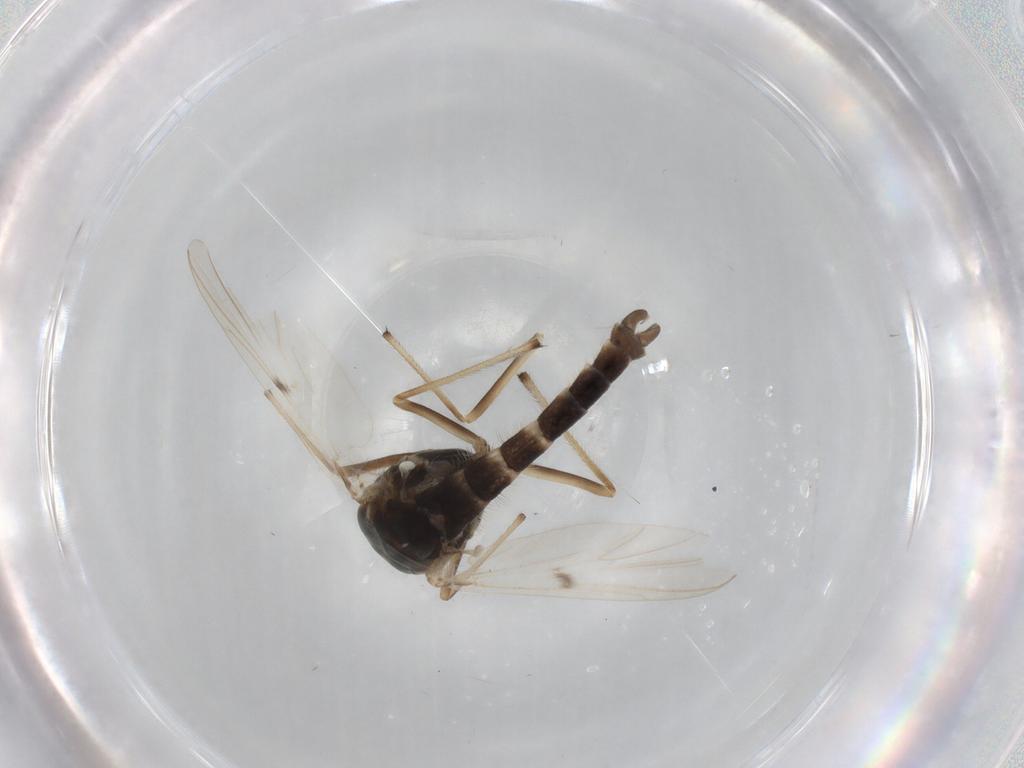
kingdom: Animalia
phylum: Arthropoda
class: Insecta
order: Diptera
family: Chironomidae
